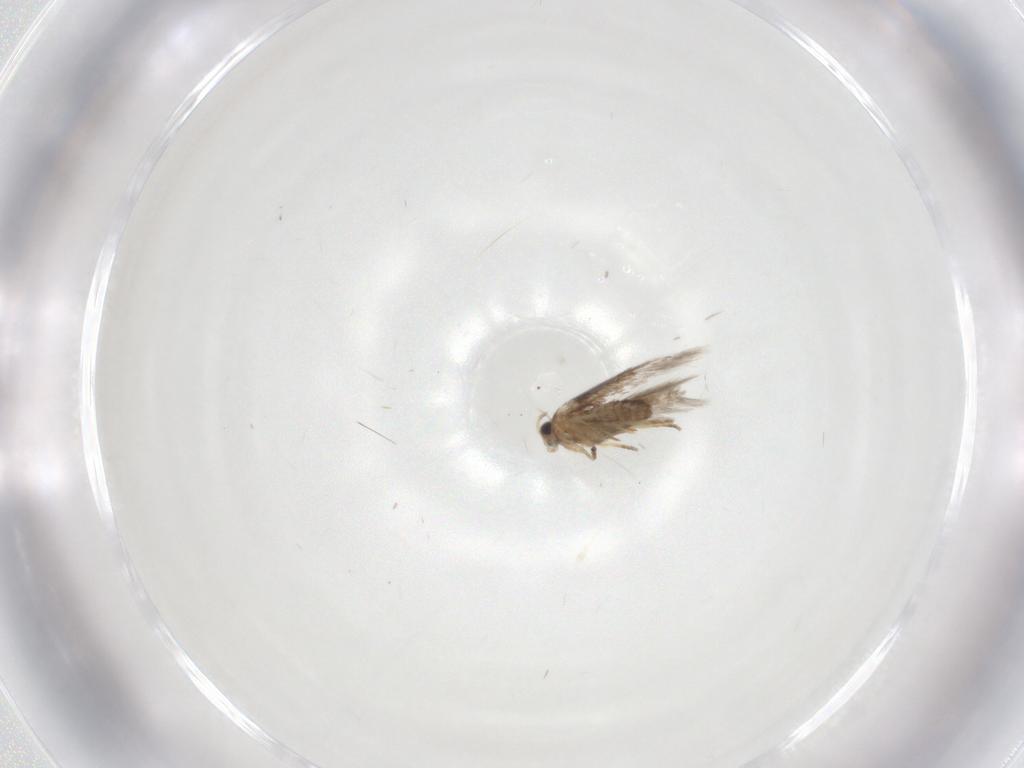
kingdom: Animalia
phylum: Arthropoda
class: Insecta
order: Lepidoptera
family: Nepticulidae
